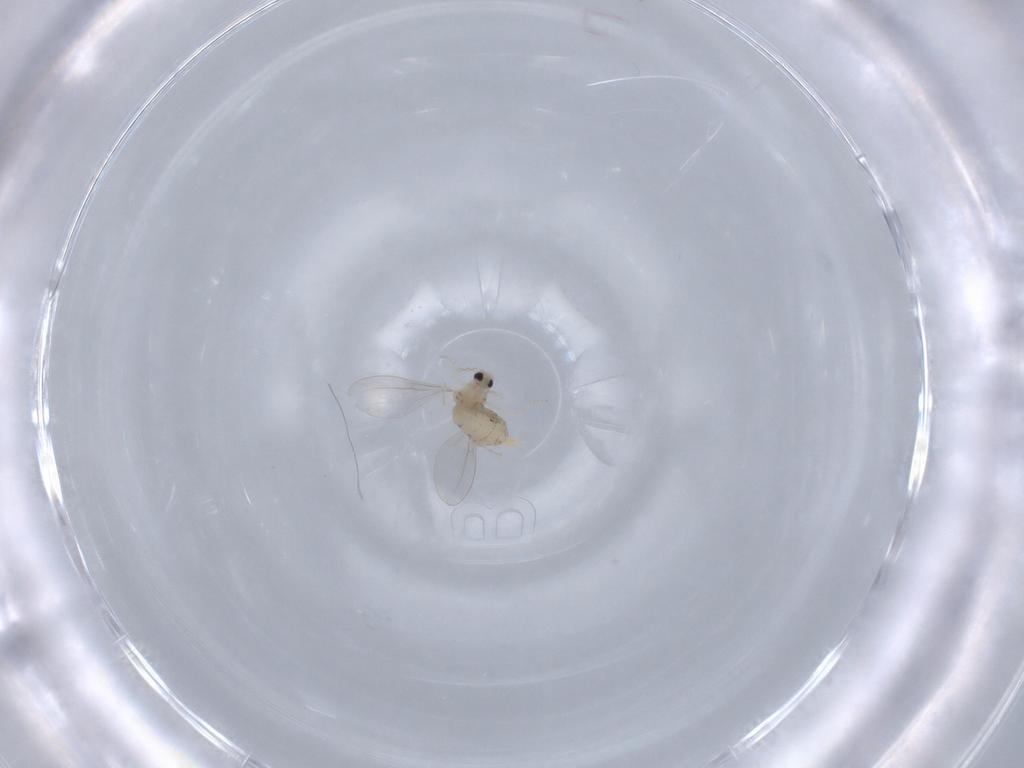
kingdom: Animalia
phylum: Arthropoda
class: Insecta
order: Diptera
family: Cecidomyiidae
